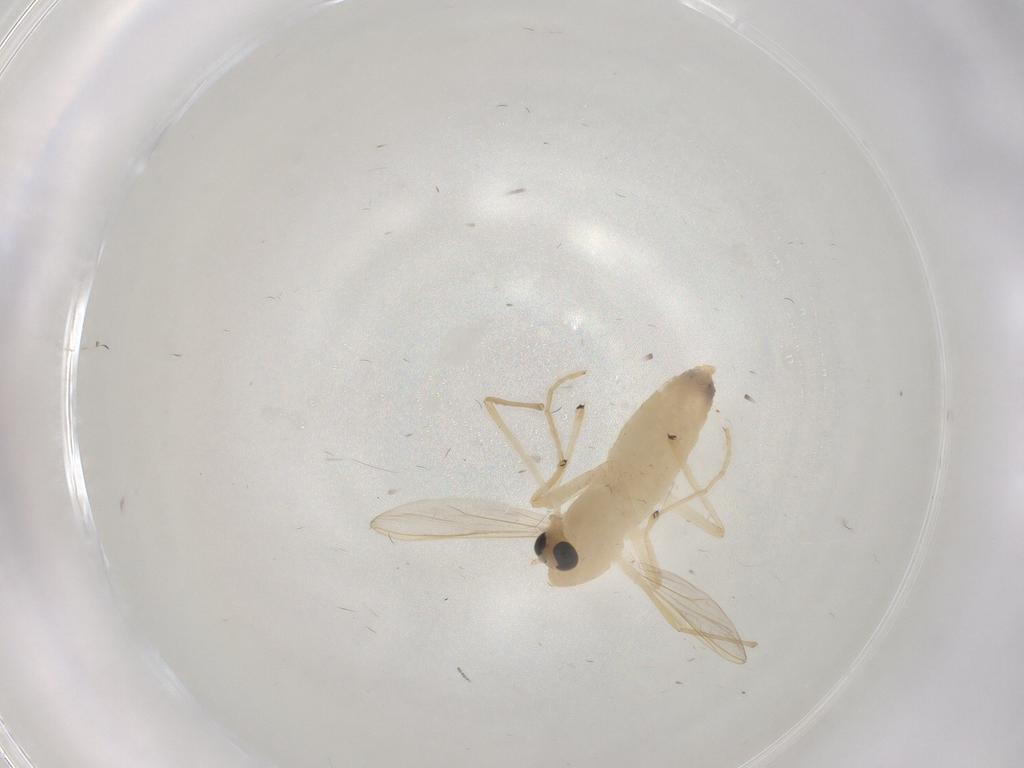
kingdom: Animalia
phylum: Arthropoda
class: Insecta
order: Diptera
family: Chironomidae
